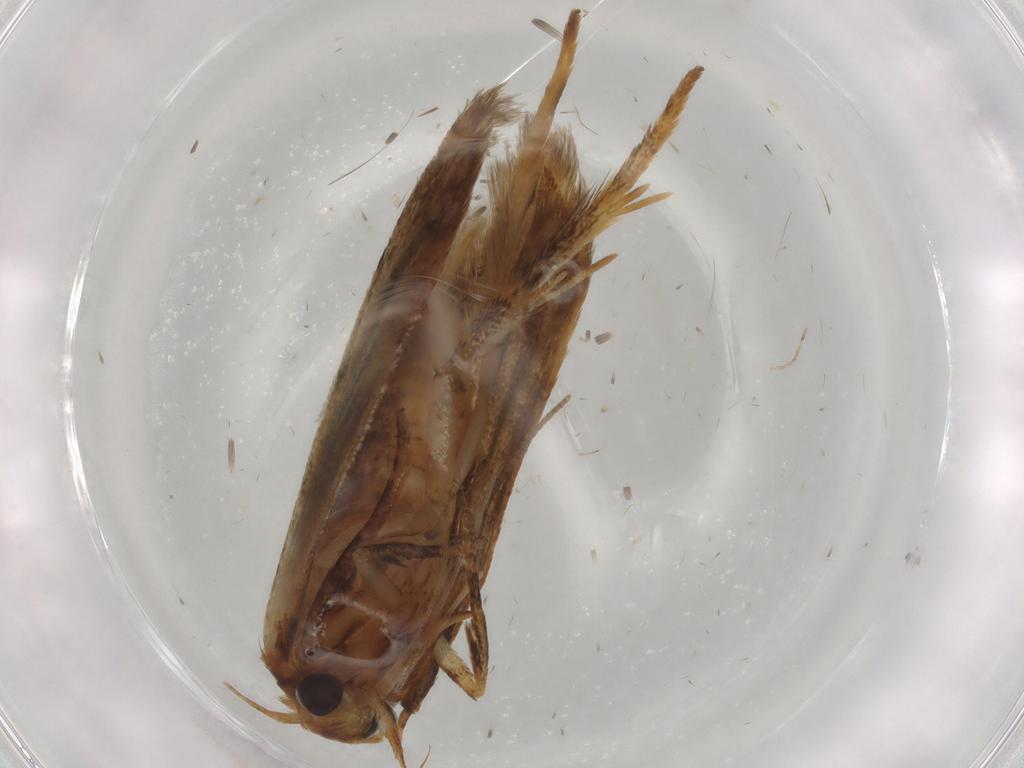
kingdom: Animalia
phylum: Arthropoda
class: Insecta
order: Lepidoptera
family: Blastobasidae
